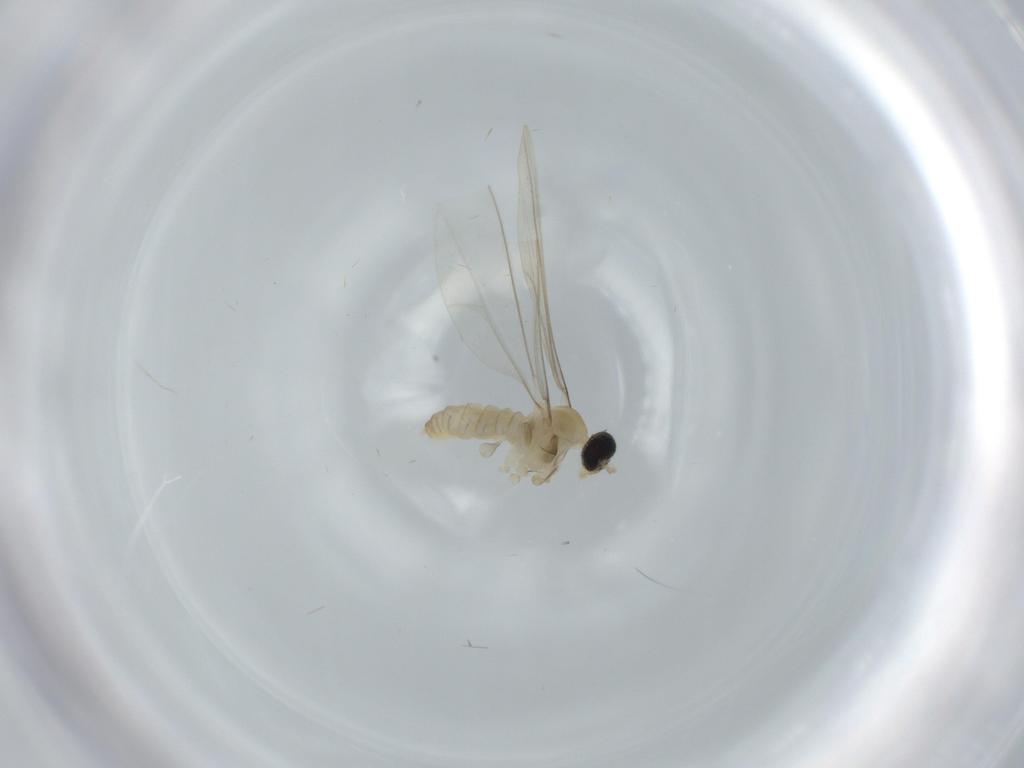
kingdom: Animalia
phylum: Arthropoda
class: Insecta
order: Diptera
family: Cecidomyiidae
